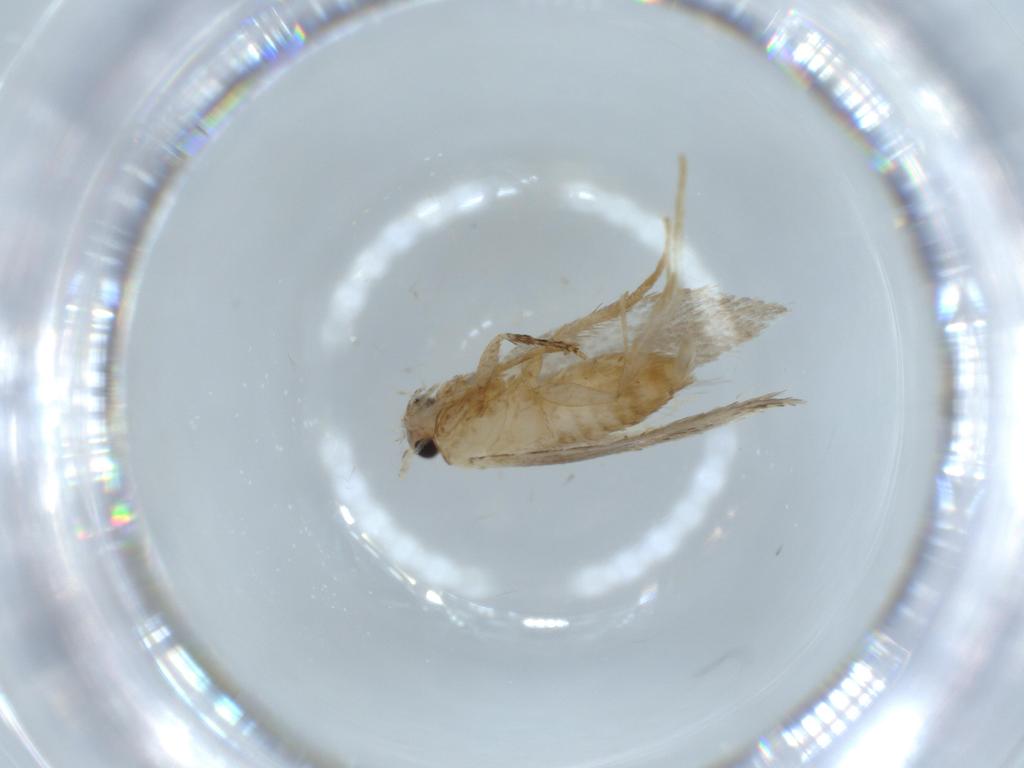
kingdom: Animalia
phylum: Arthropoda
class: Insecta
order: Lepidoptera
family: Tineidae
